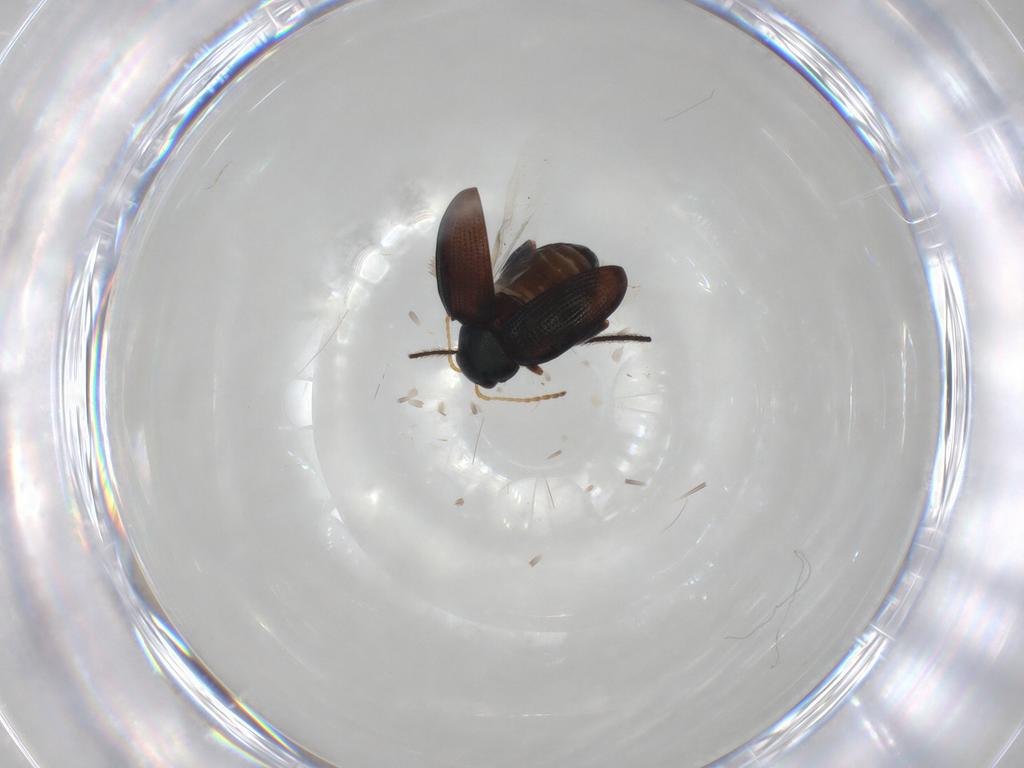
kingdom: Animalia
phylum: Arthropoda
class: Insecta
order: Coleoptera
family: Chrysomelidae
